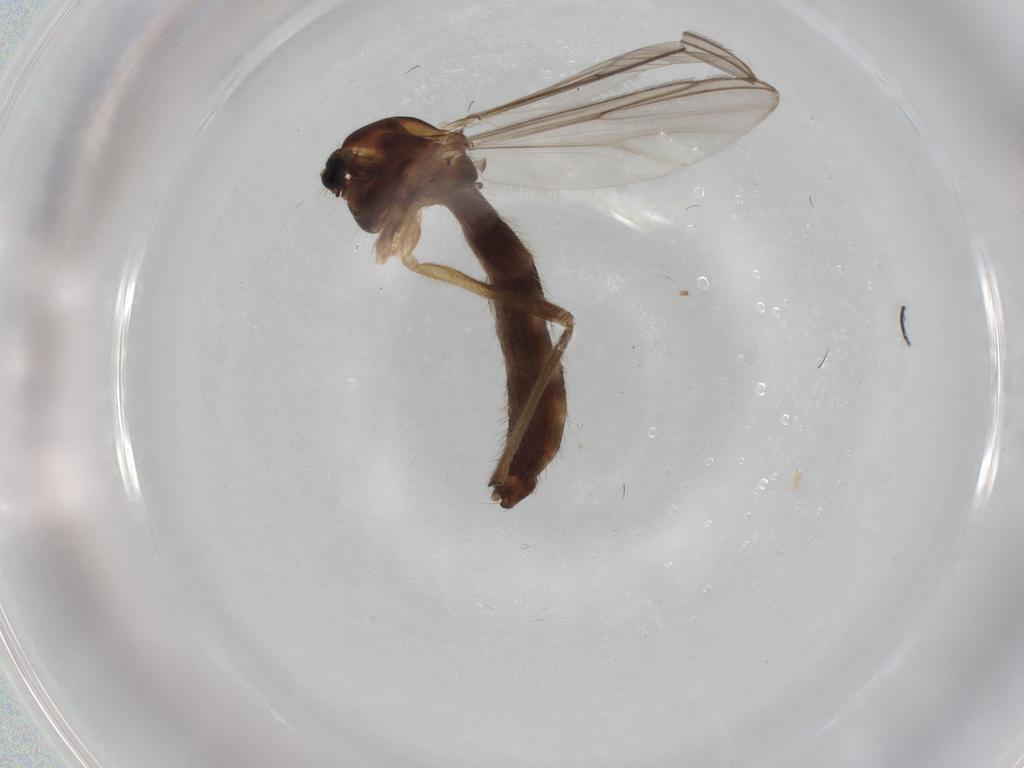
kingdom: Animalia
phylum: Arthropoda
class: Insecta
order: Diptera
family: Chironomidae
